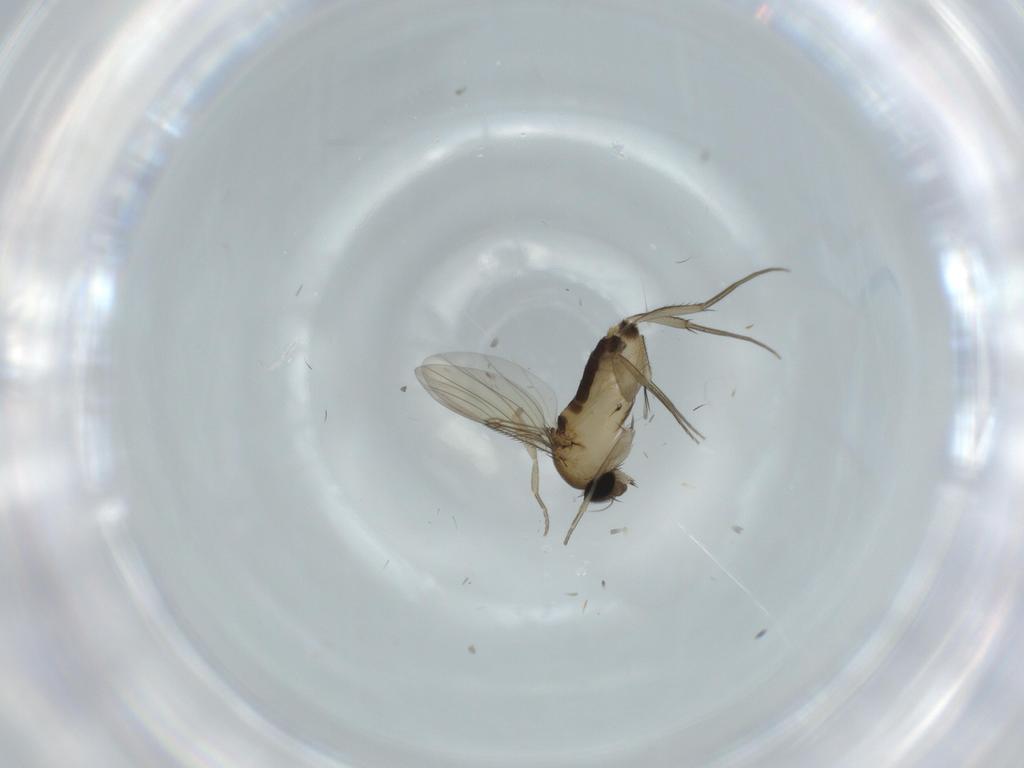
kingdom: Animalia
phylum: Arthropoda
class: Insecta
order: Diptera
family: Phoridae
